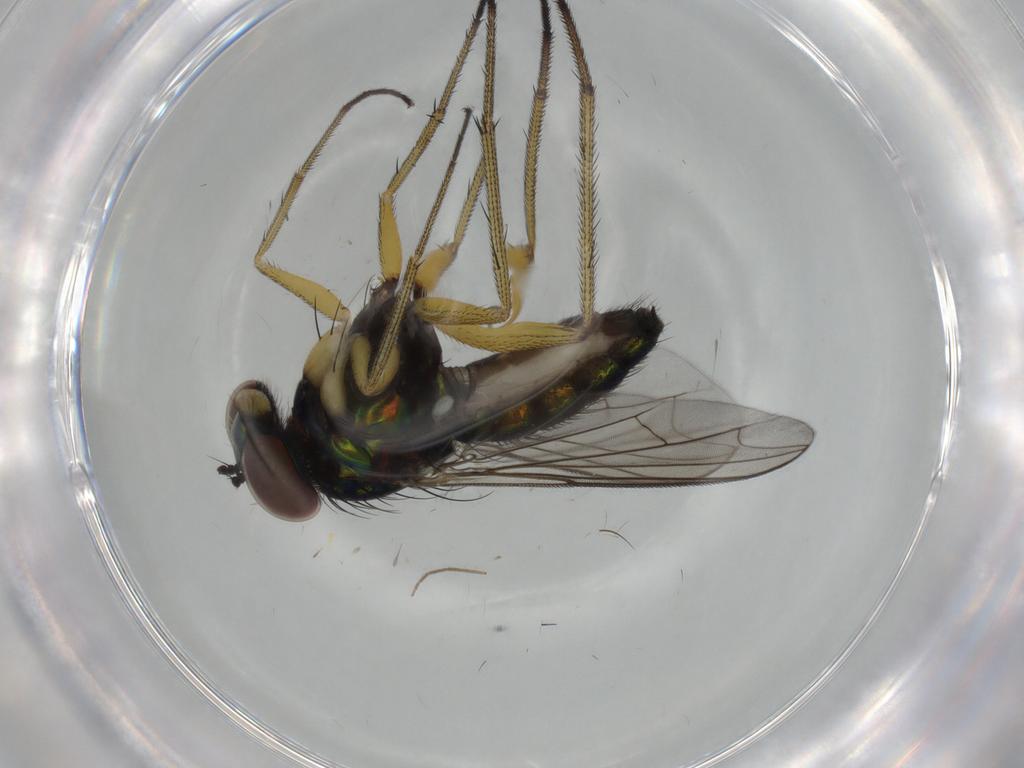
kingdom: Animalia
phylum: Arthropoda
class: Insecta
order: Diptera
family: Dolichopodidae
